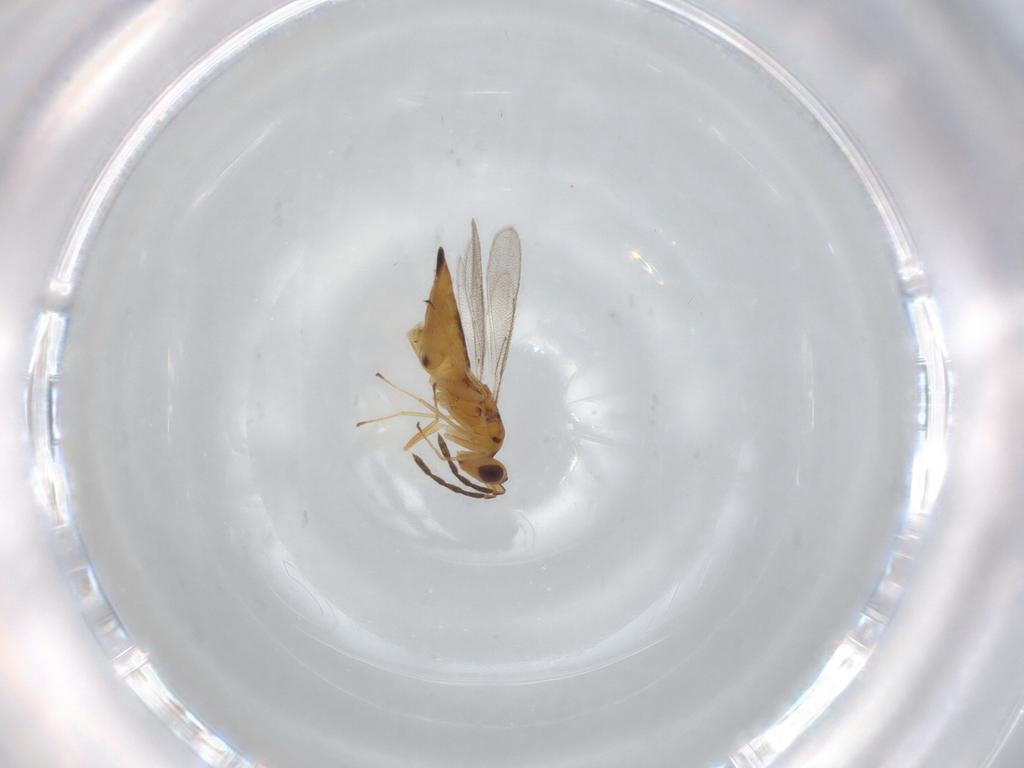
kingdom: Animalia
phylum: Arthropoda
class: Insecta
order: Hymenoptera
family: Eulophidae
